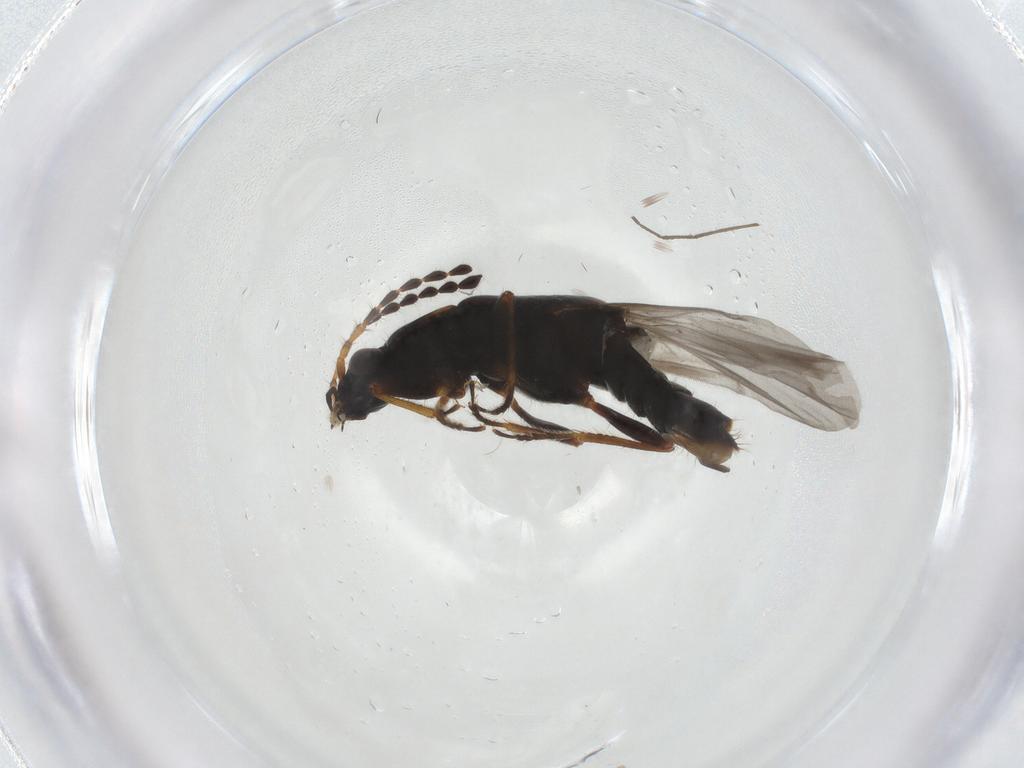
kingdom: Animalia
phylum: Arthropoda
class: Insecta
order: Coleoptera
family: Staphylinidae
